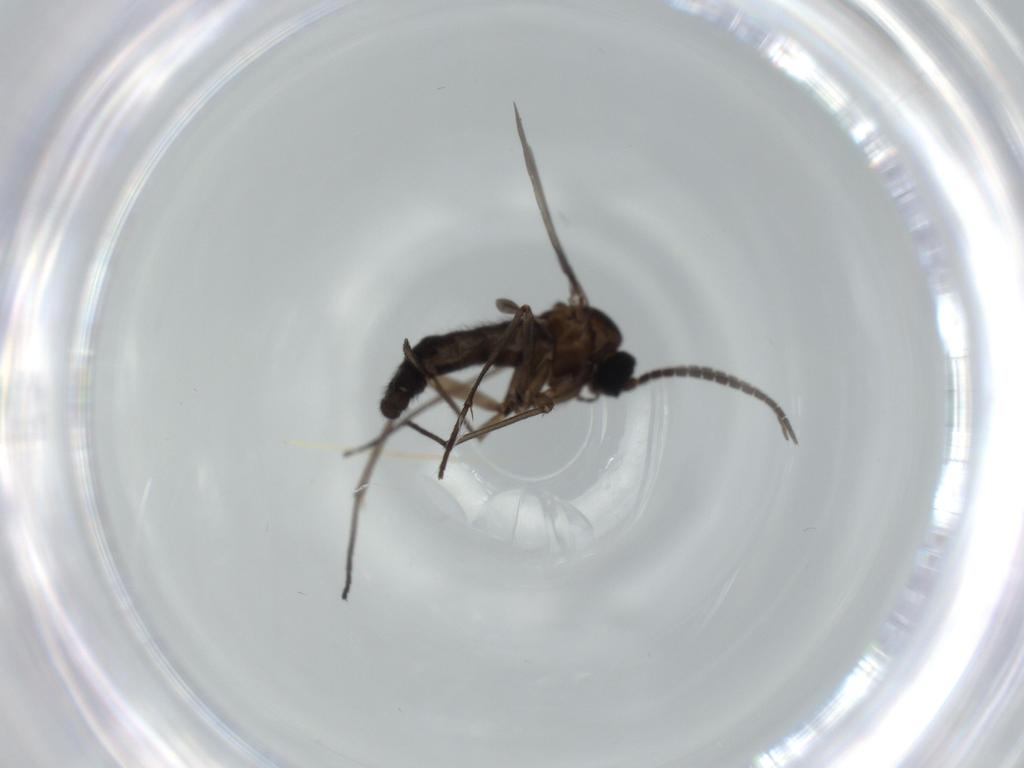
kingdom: Animalia
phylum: Arthropoda
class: Insecta
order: Diptera
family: Sciaridae
